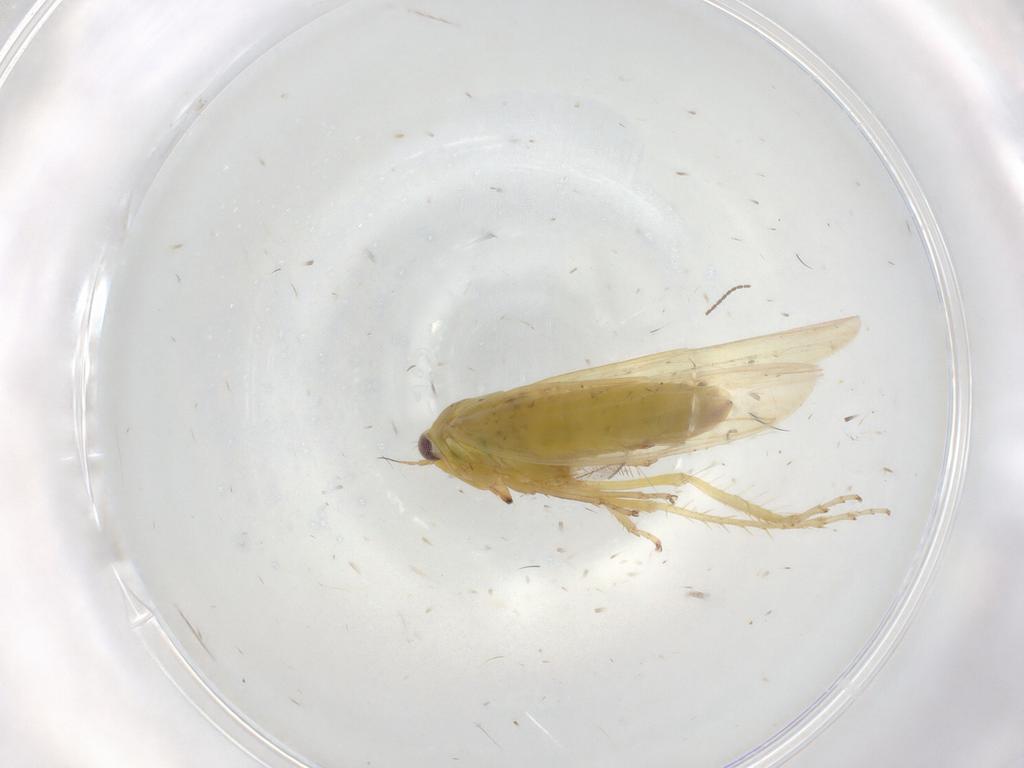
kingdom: Animalia
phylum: Arthropoda
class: Insecta
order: Hemiptera
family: Cicadellidae
